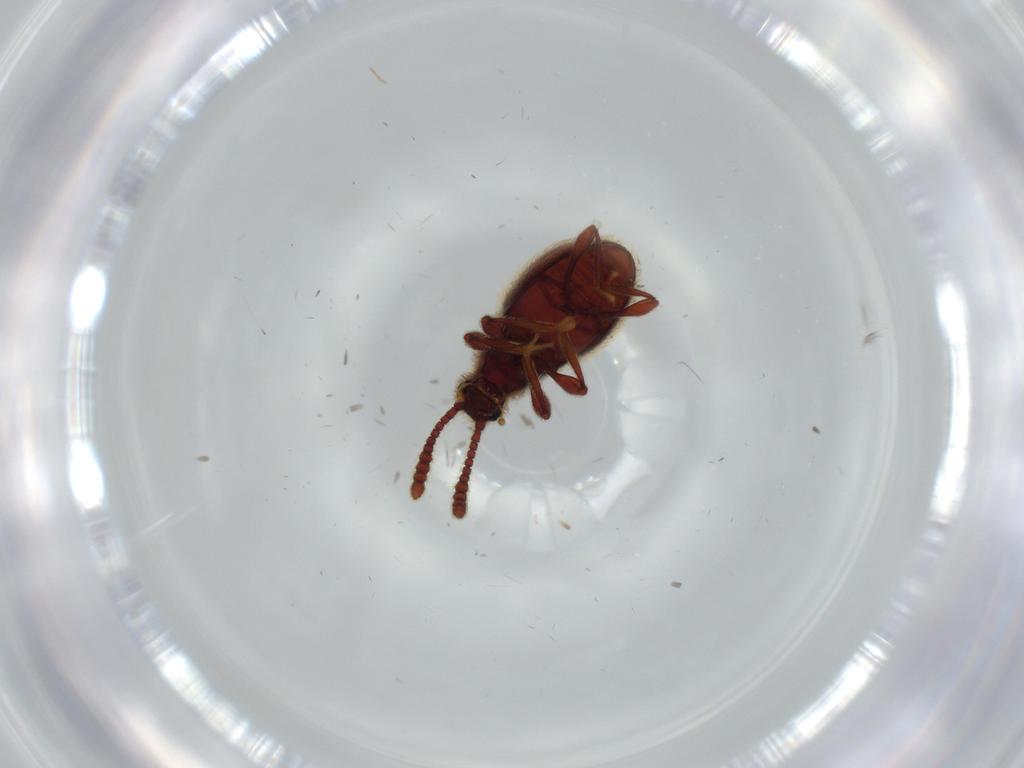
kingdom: Animalia
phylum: Arthropoda
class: Insecta
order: Coleoptera
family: Staphylinidae
